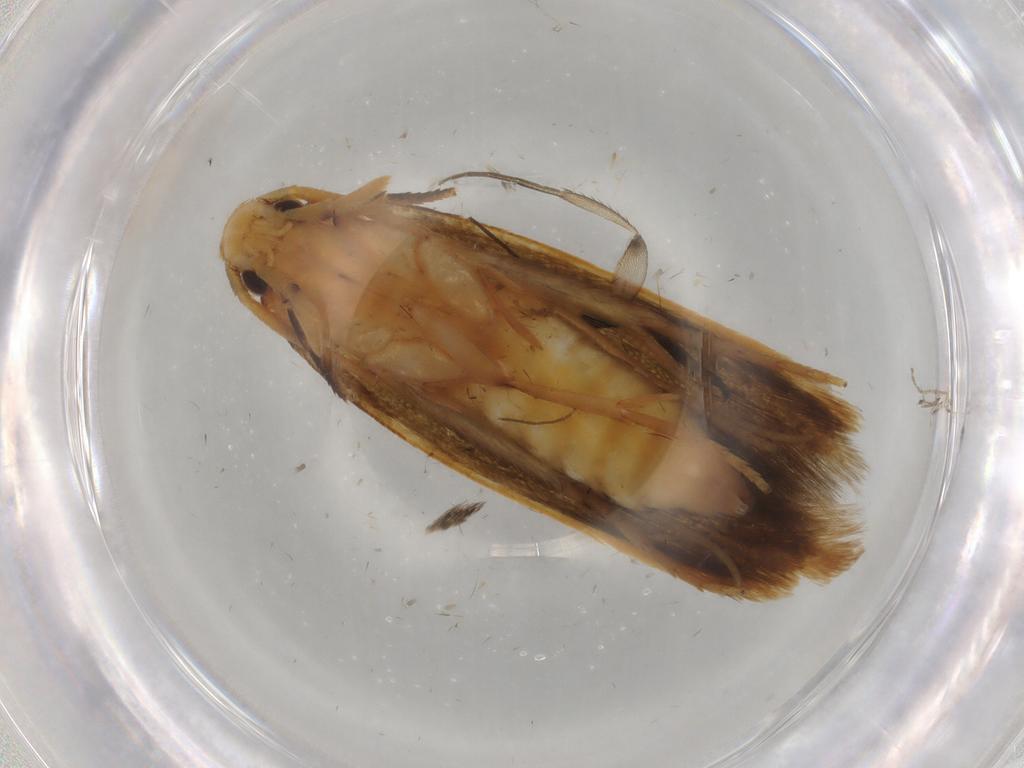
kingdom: Animalia
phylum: Arthropoda
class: Insecta
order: Lepidoptera
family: Tineidae
